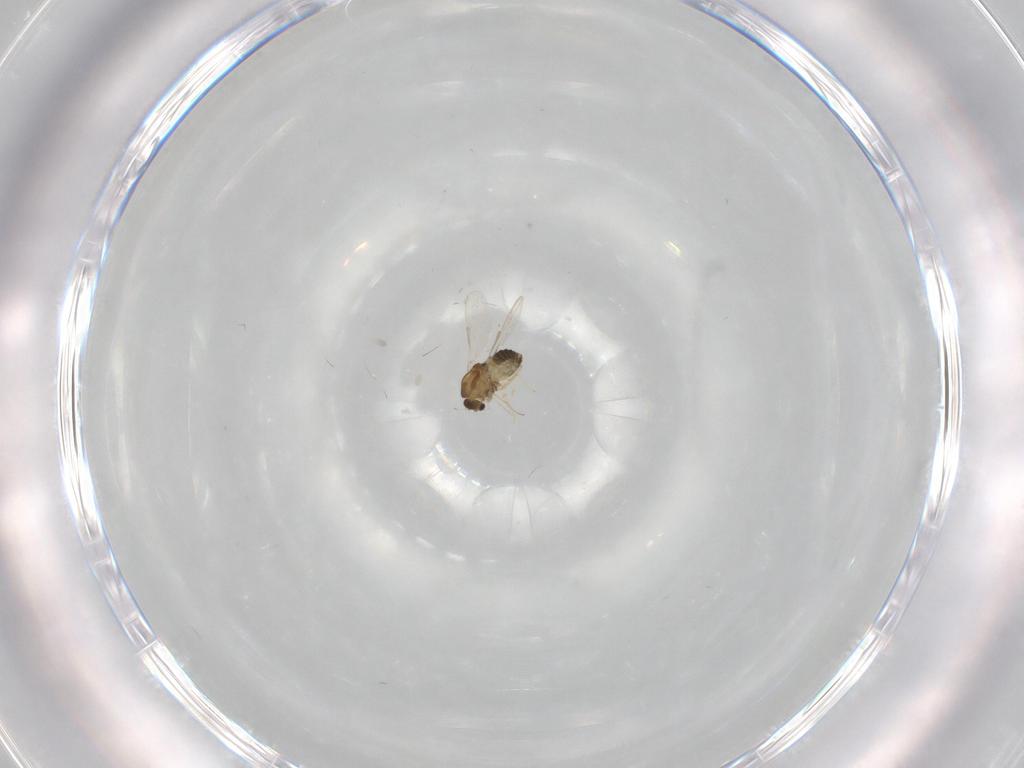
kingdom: Animalia
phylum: Arthropoda
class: Insecta
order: Diptera
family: Chironomidae
